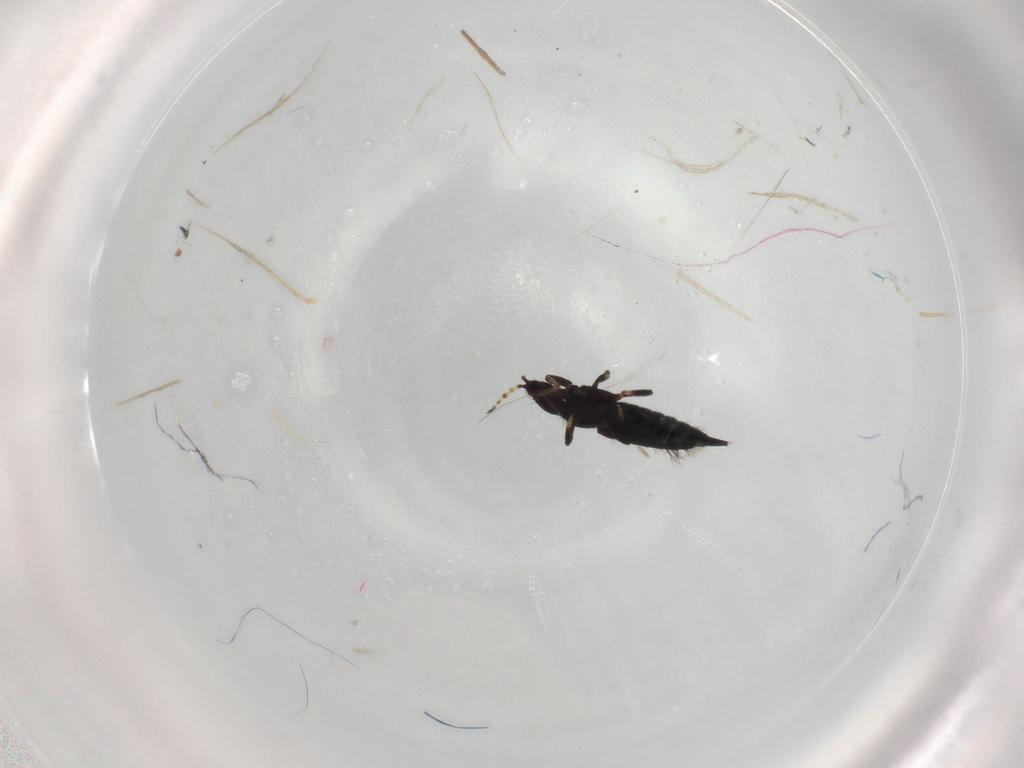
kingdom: Animalia
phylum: Arthropoda
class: Insecta
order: Thysanoptera
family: Phlaeothripidae
